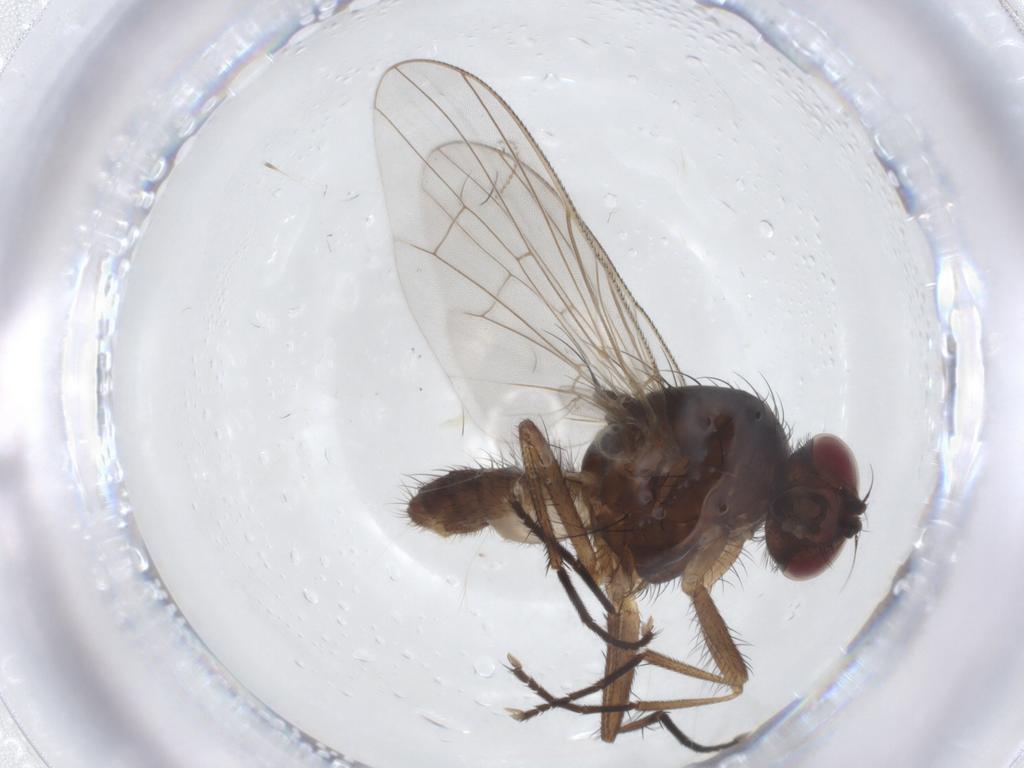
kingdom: Animalia
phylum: Arthropoda
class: Insecta
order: Diptera
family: Anthomyiidae
